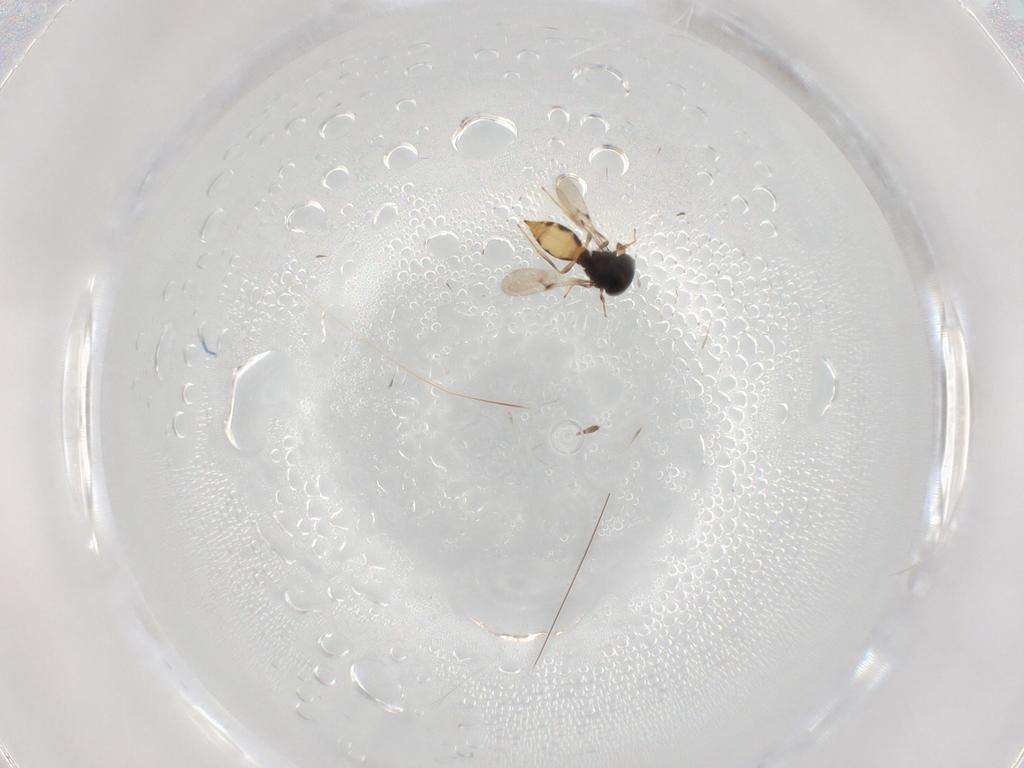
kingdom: Animalia
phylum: Arthropoda
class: Insecta
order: Hymenoptera
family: Scelionidae
